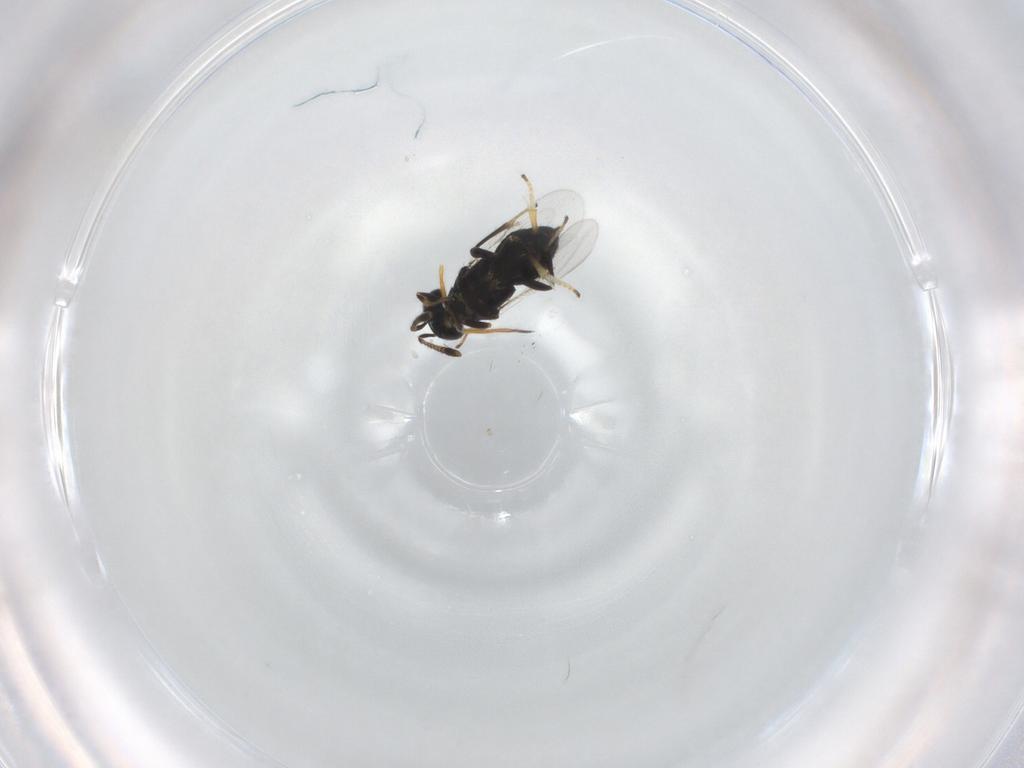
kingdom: Animalia
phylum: Arthropoda
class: Insecta
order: Hymenoptera
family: Encyrtidae
